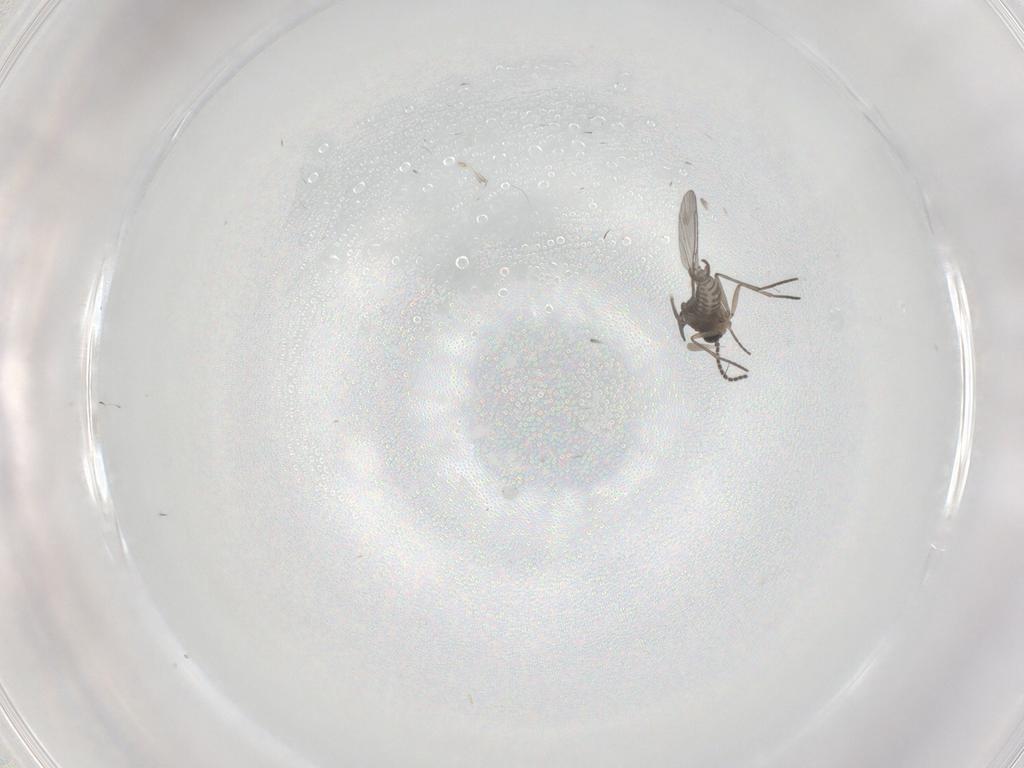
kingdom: Animalia
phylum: Arthropoda
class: Insecta
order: Diptera
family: Sciaridae
